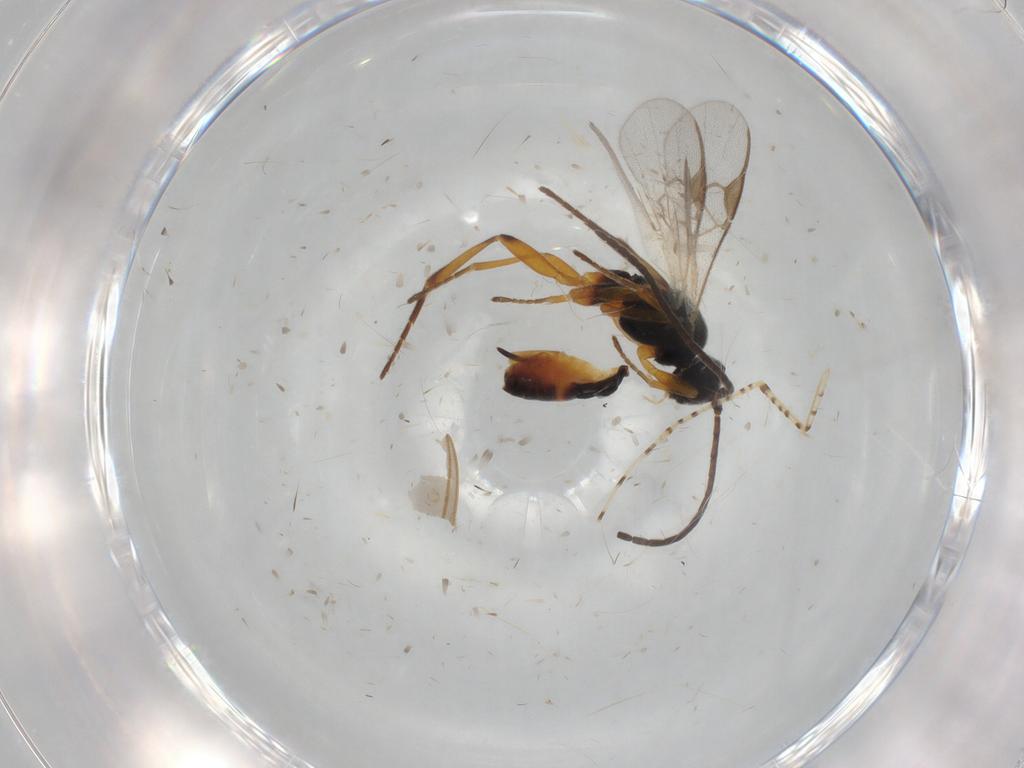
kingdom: Animalia
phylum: Arthropoda
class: Insecta
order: Hymenoptera
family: Braconidae
